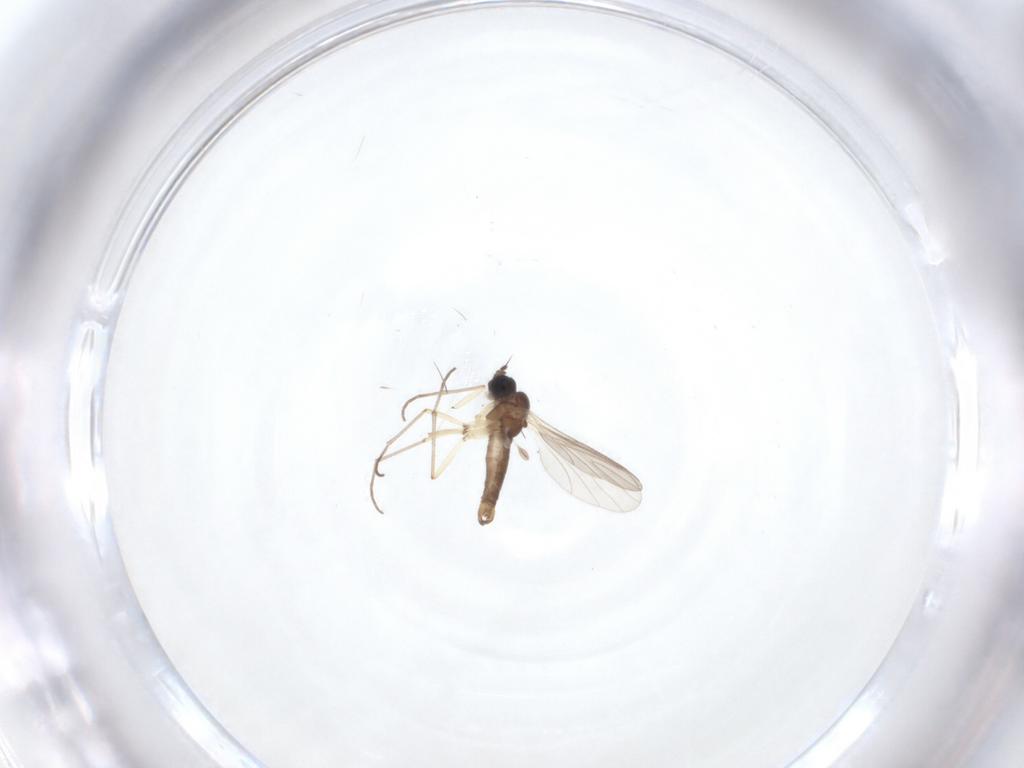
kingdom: Animalia
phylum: Arthropoda
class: Insecta
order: Diptera
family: Sciaridae
